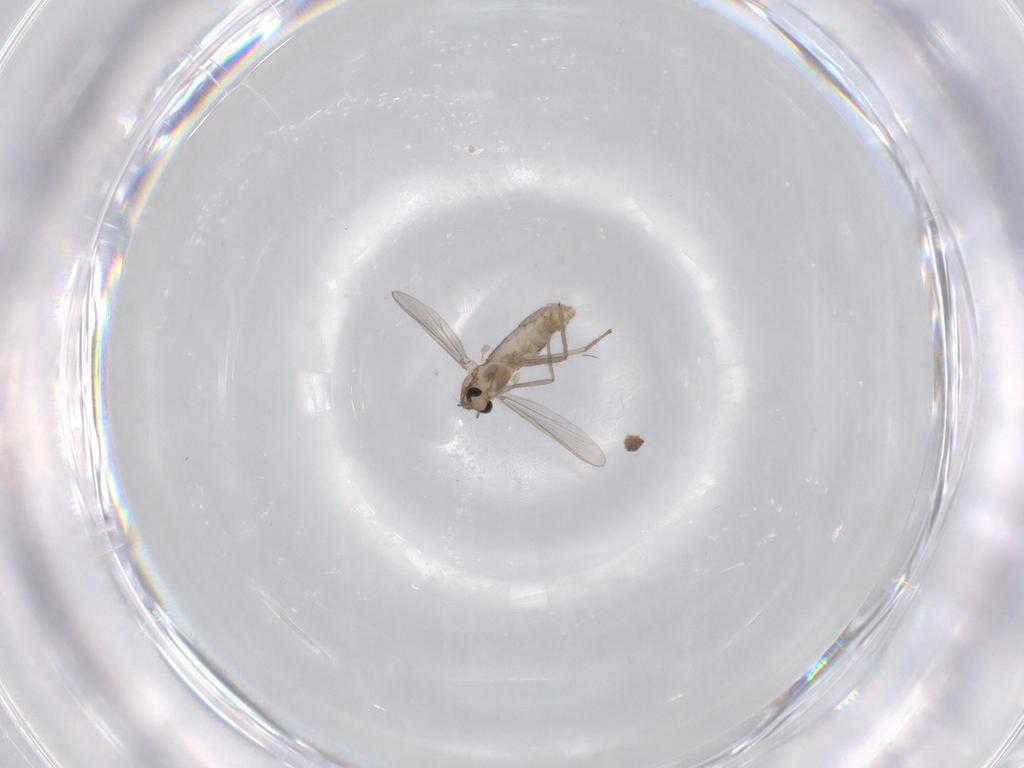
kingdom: Animalia
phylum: Arthropoda
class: Insecta
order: Diptera
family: Chironomidae
